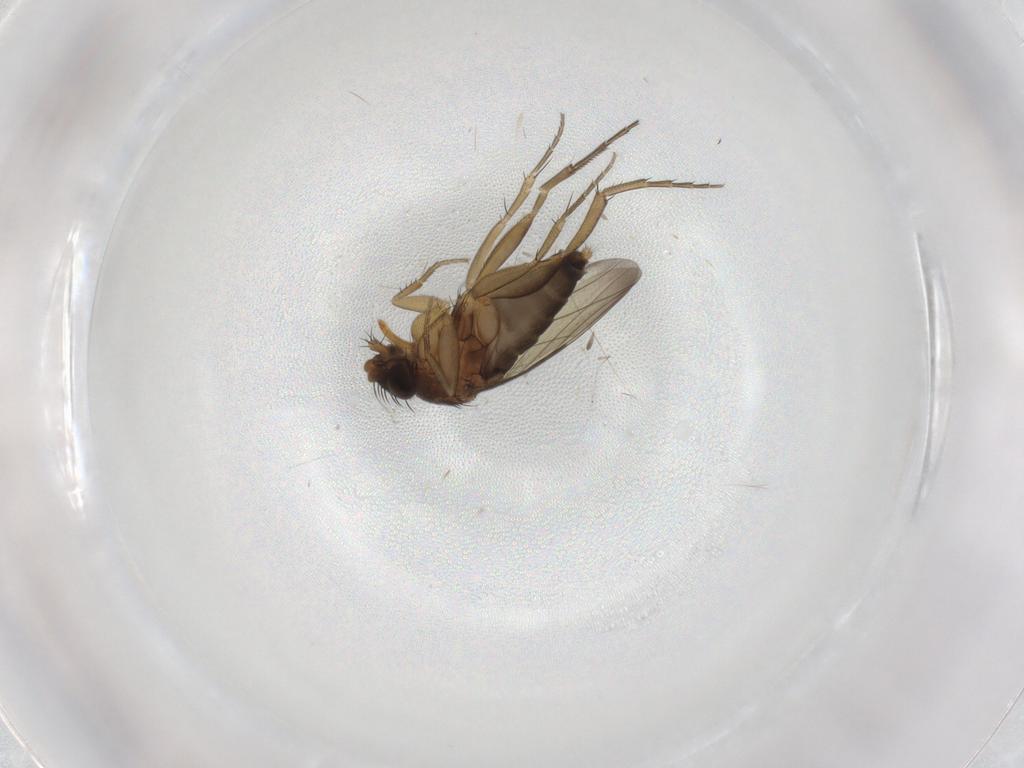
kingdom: Animalia
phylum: Arthropoda
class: Insecta
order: Diptera
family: Phoridae
